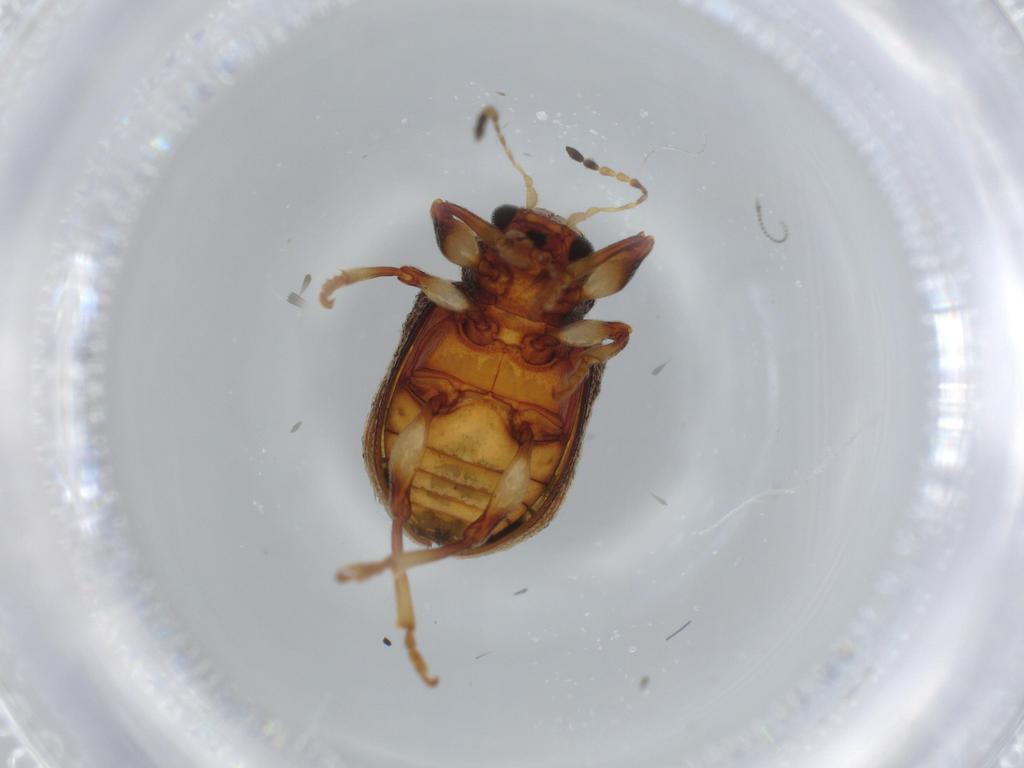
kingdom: Animalia
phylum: Arthropoda
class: Insecta
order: Coleoptera
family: Chrysomelidae
